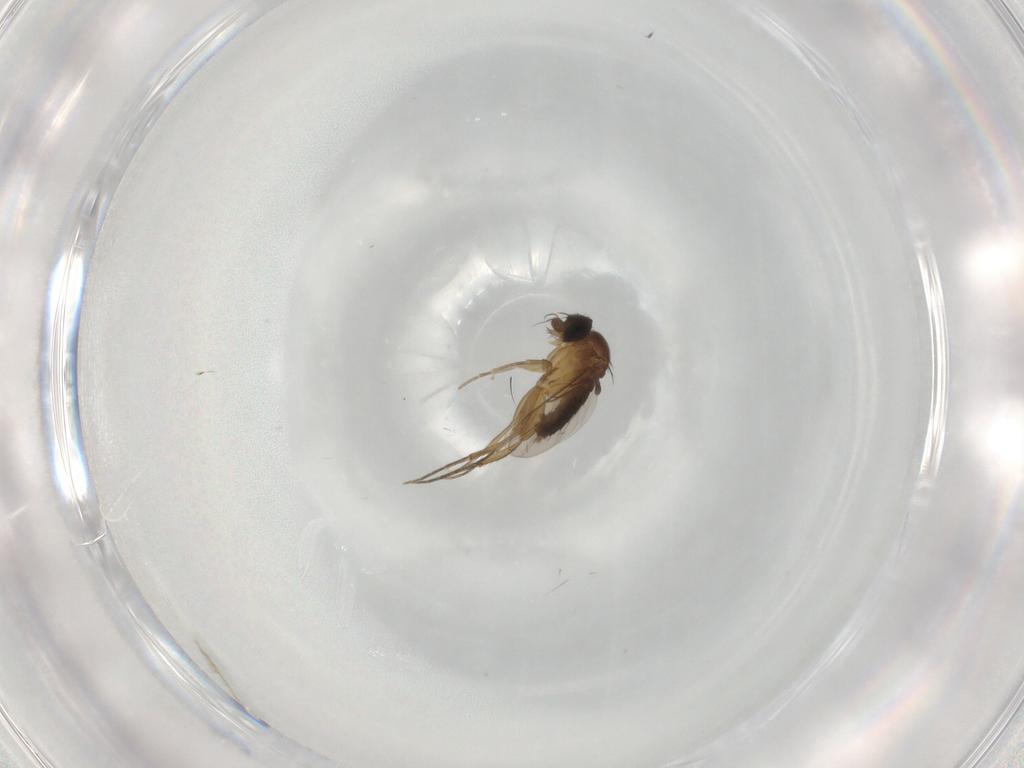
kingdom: Animalia
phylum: Arthropoda
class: Insecta
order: Diptera
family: Phoridae
